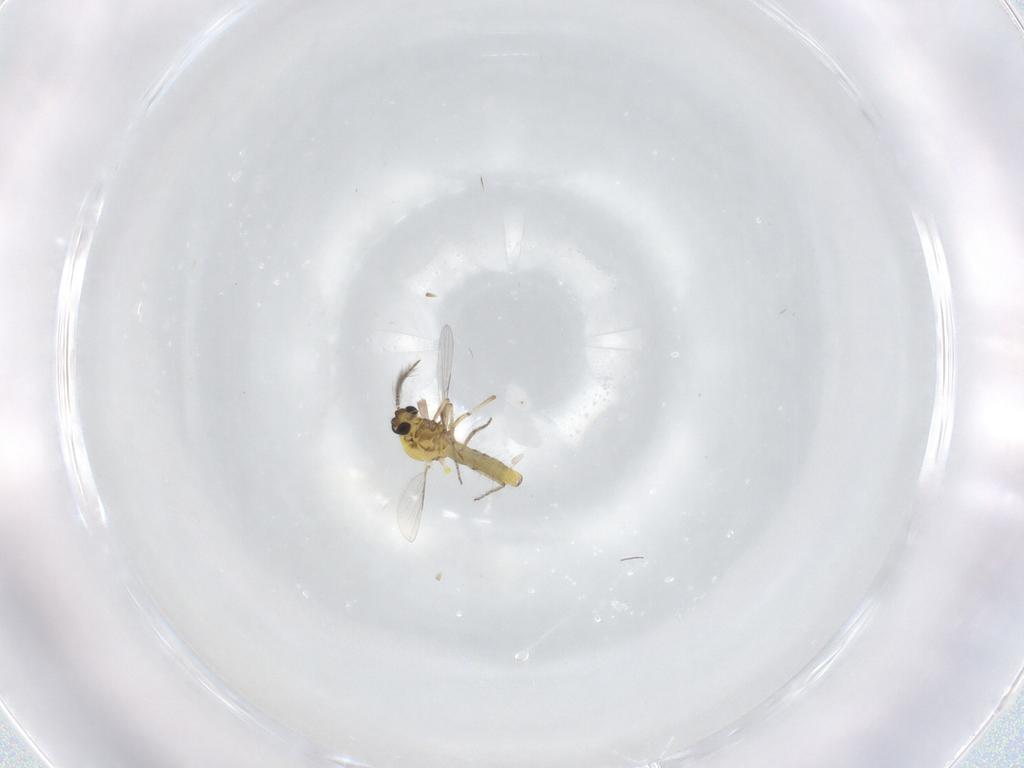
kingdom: Animalia
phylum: Arthropoda
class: Insecta
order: Diptera
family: Ceratopogonidae
